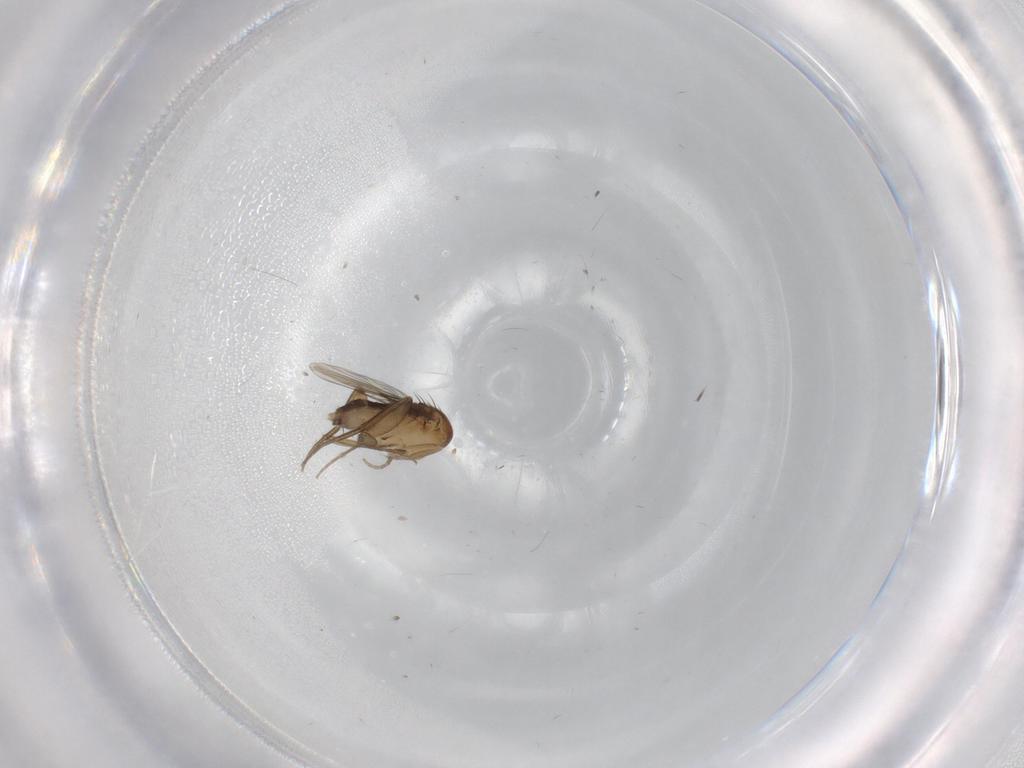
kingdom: Animalia
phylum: Arthropoda
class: Insecta
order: Diptera
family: Phoridae
